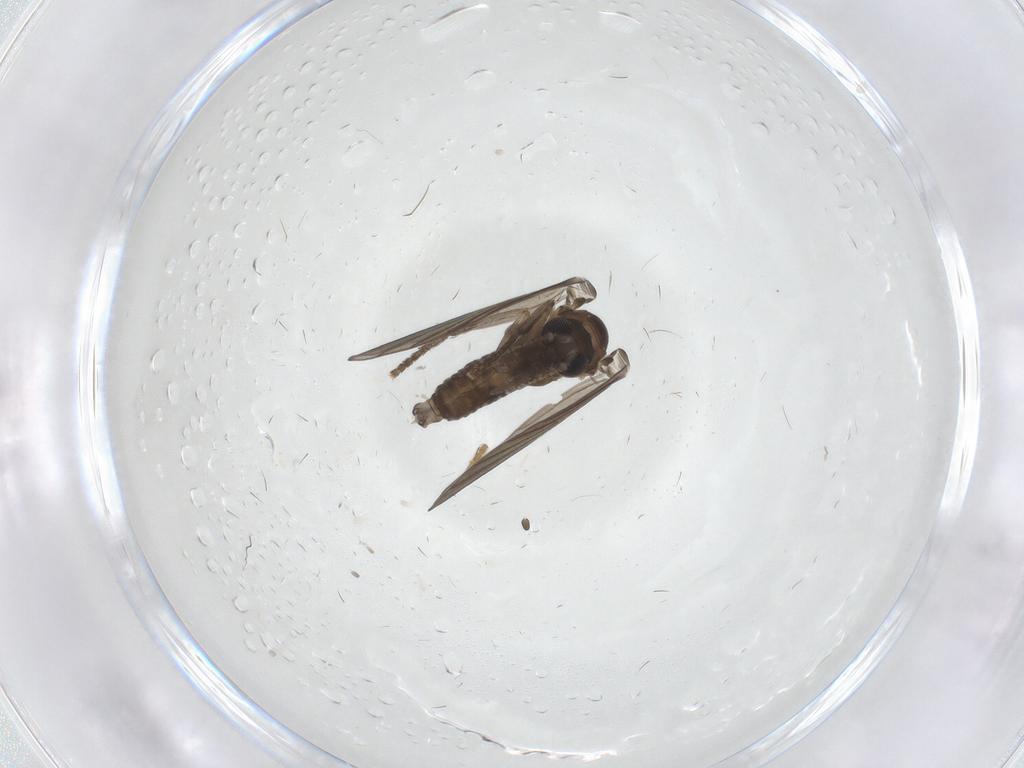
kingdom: Animalia
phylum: Arthropoda
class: Insecta
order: Diptera
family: Psychodidae
